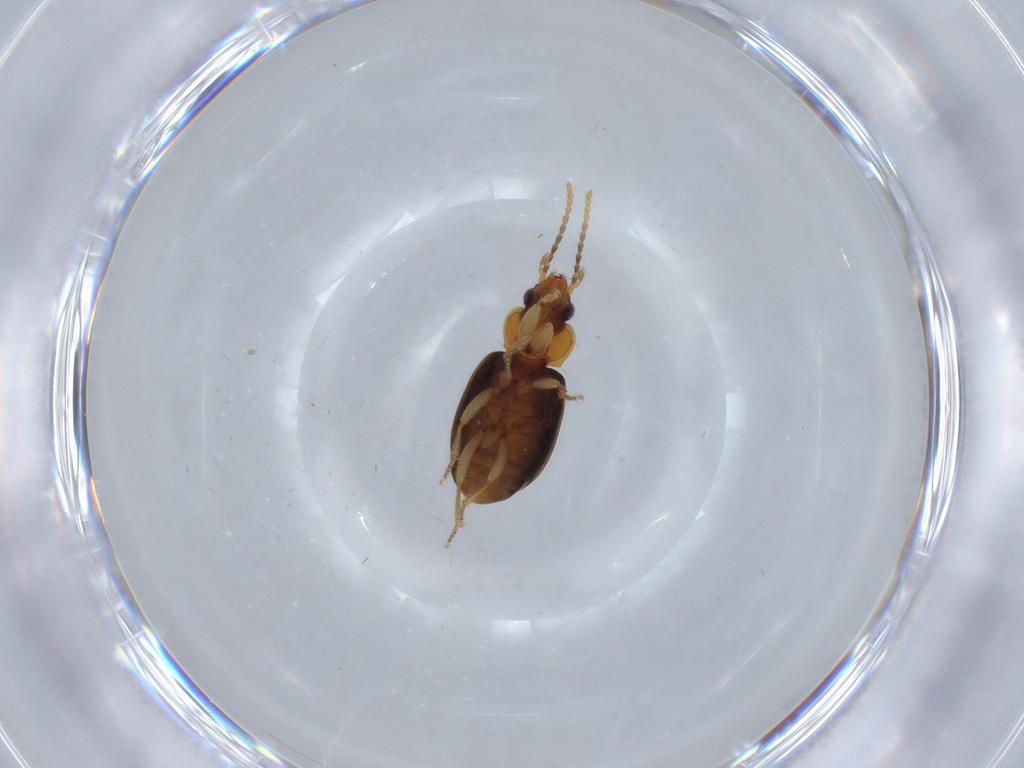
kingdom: Animalia
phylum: Arthropoda
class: Insecta
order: Coleoptera
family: Carabidae
